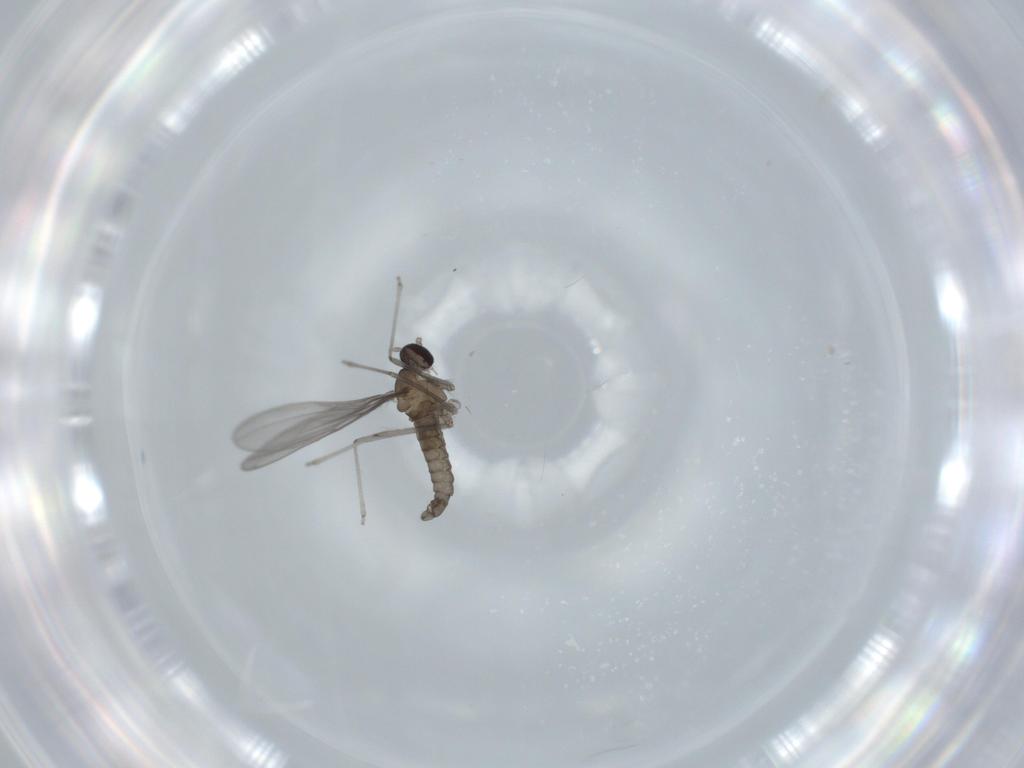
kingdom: Animalia
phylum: Arthropoda
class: Insecta
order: Diptera
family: Cecidomyiidae
